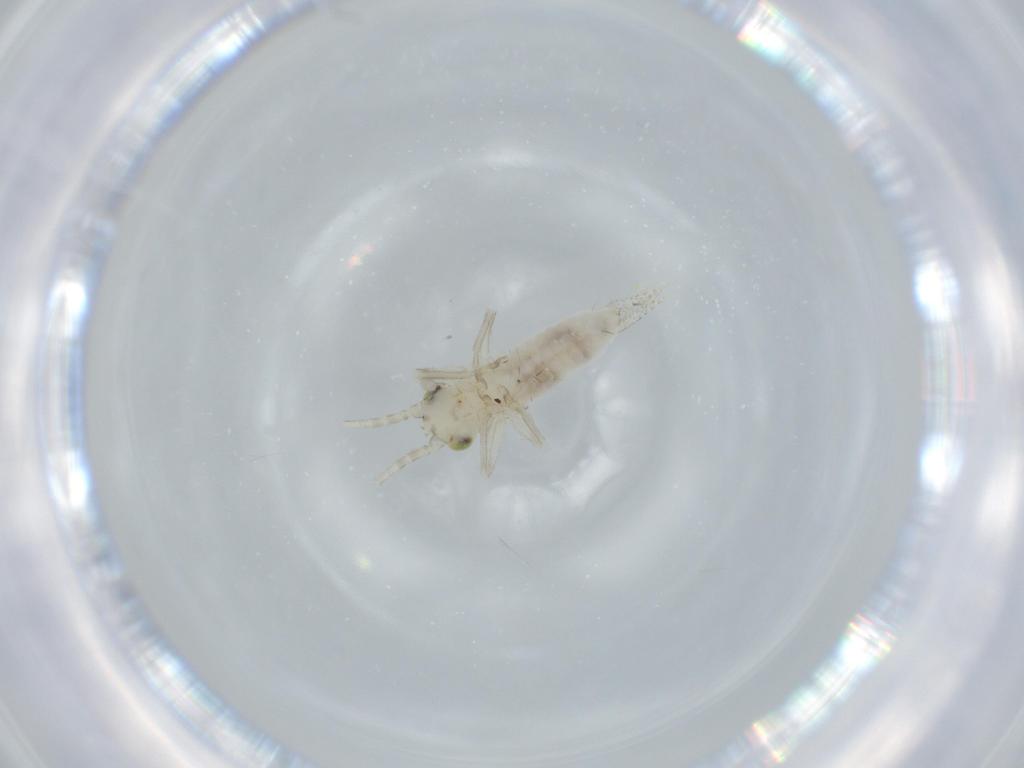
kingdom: Animalia
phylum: Arthropoda
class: Insecta
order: Orthoptera
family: Trigonidiidae
